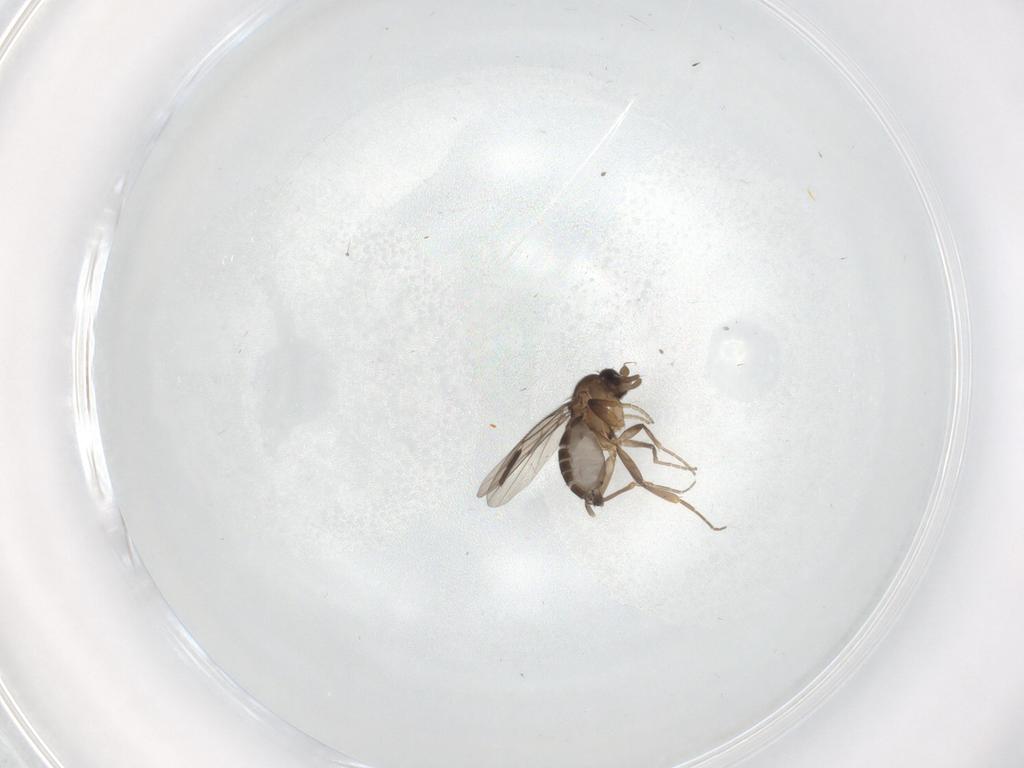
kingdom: Animalia
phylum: Arthropoda
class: Insecta
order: Diptera
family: Phoridae
